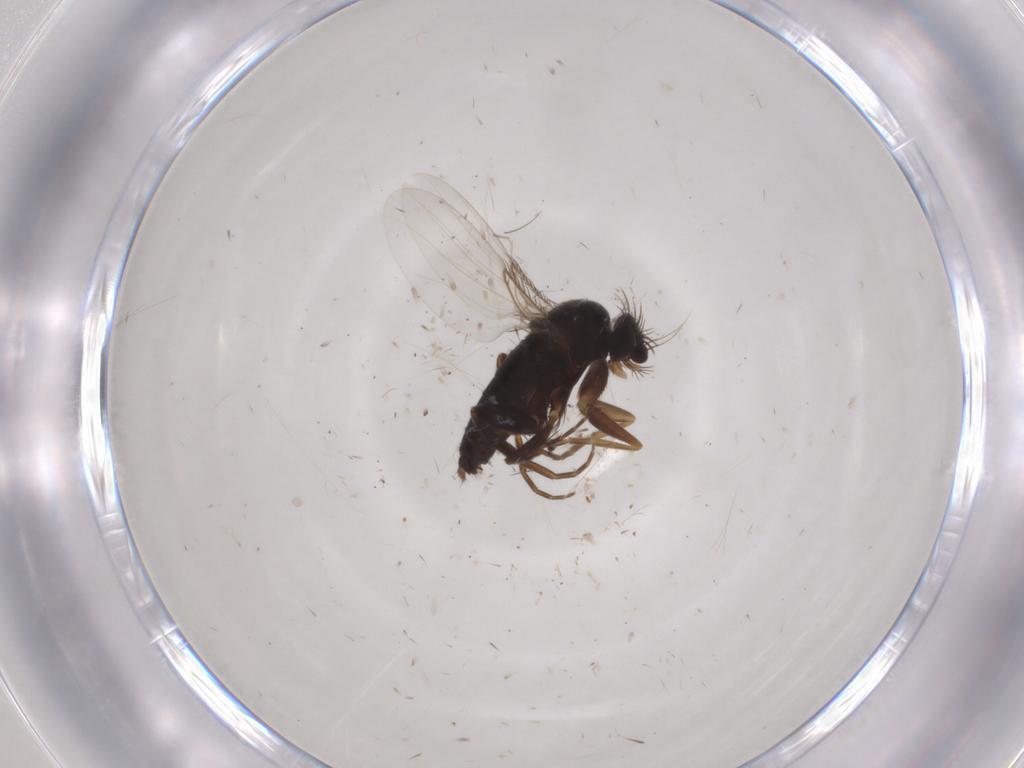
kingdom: Animalia
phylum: Arthropoda
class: Insecta
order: Diptera
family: Phoridae
